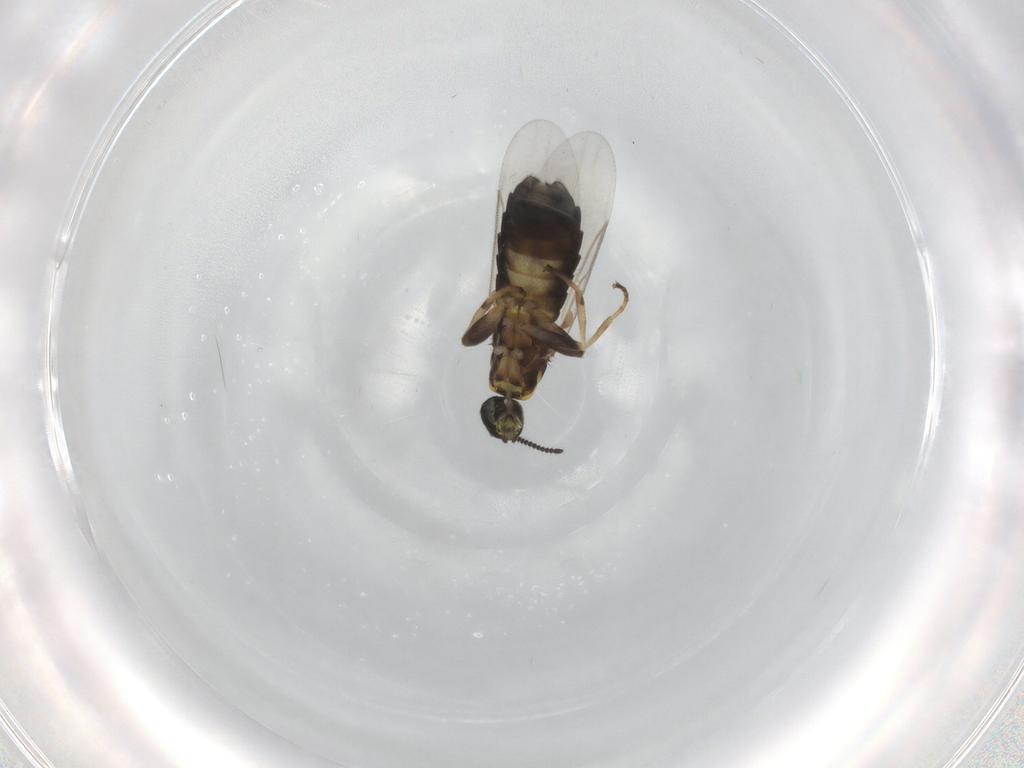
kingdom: Animalia
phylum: Arthropoda
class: Insecta
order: Diptera
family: Scatopsidae
